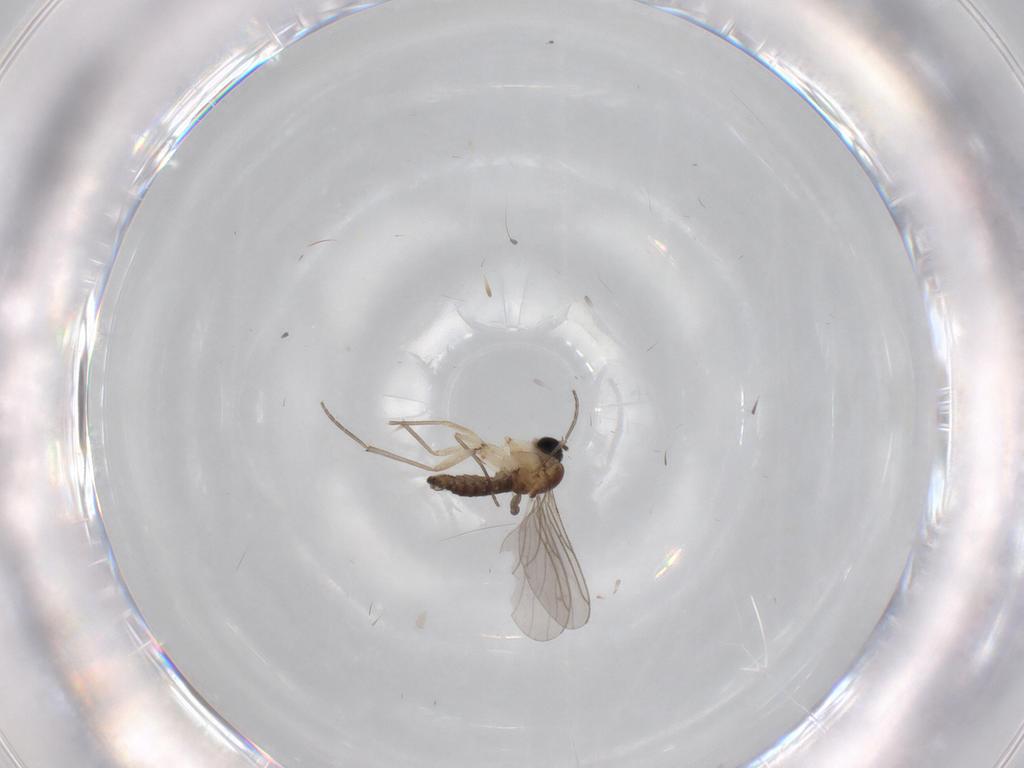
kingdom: Animalia
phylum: Arthropoda
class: Insecta
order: Diptera
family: Sciaridae
